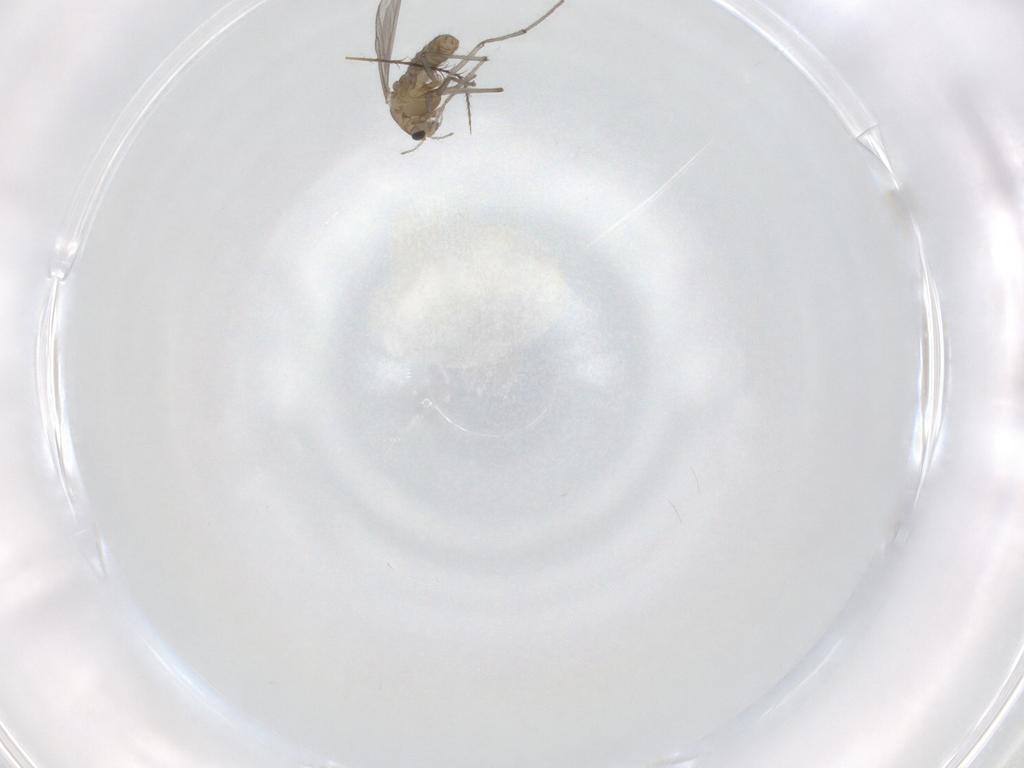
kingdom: Animalia
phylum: Arthropoda
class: Insecta
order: Diptera
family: Chironomidae
